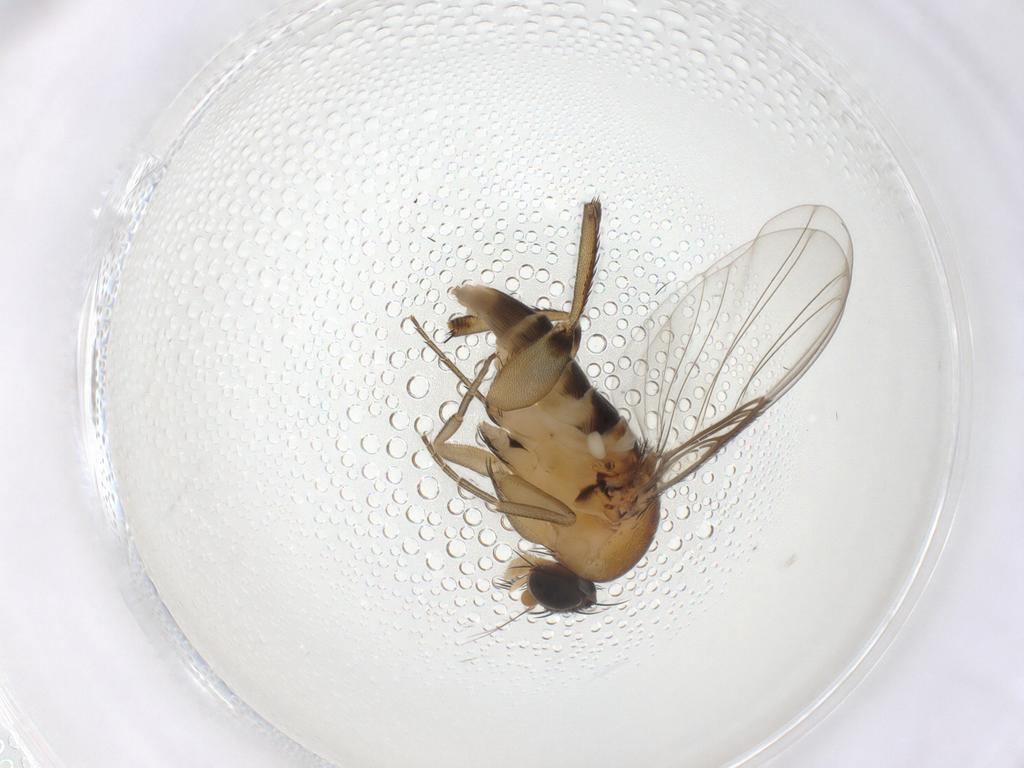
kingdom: Animalia
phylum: Arthropoda
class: Insecta
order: Diptera
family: Phoridae
